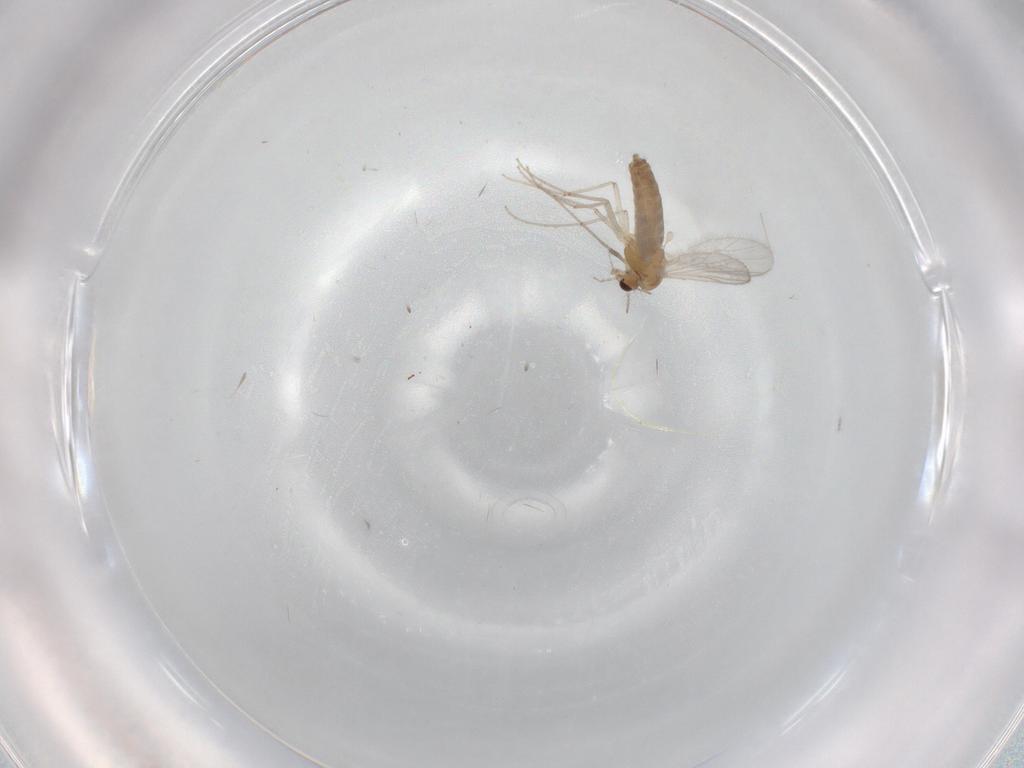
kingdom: Animalia
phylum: Arthropoda
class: Insecta
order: Diptera
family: Chironomidae
